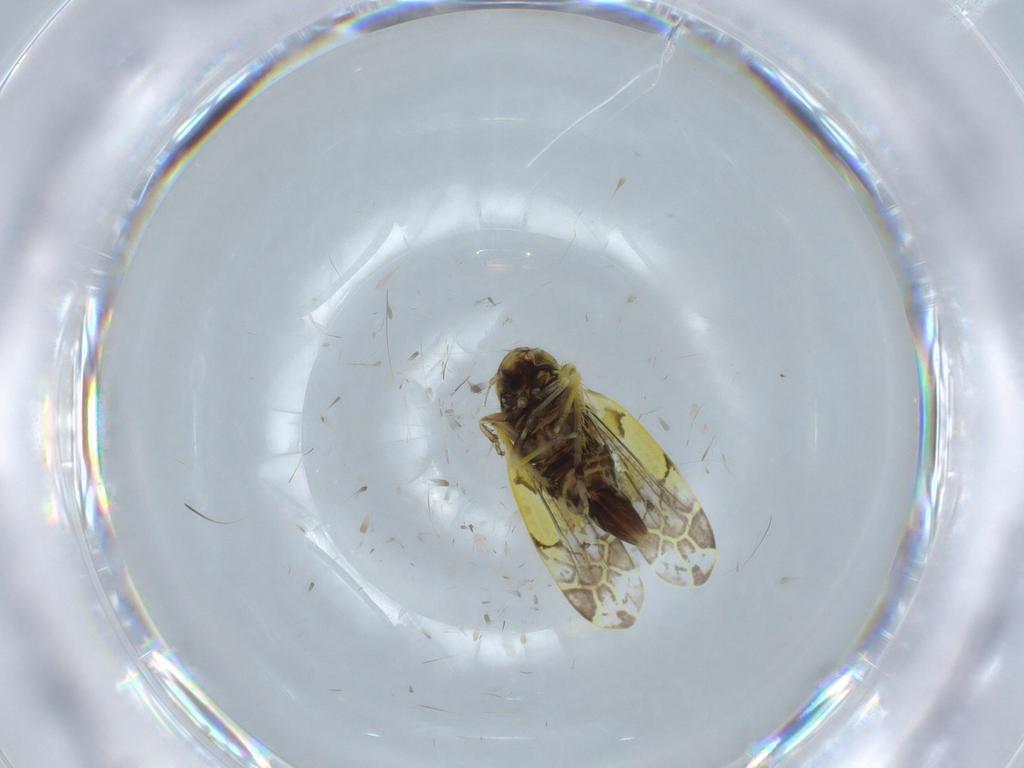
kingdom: Animalia
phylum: Arthropoda
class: Insecta
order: Hemiptera
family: Cicadellidae
